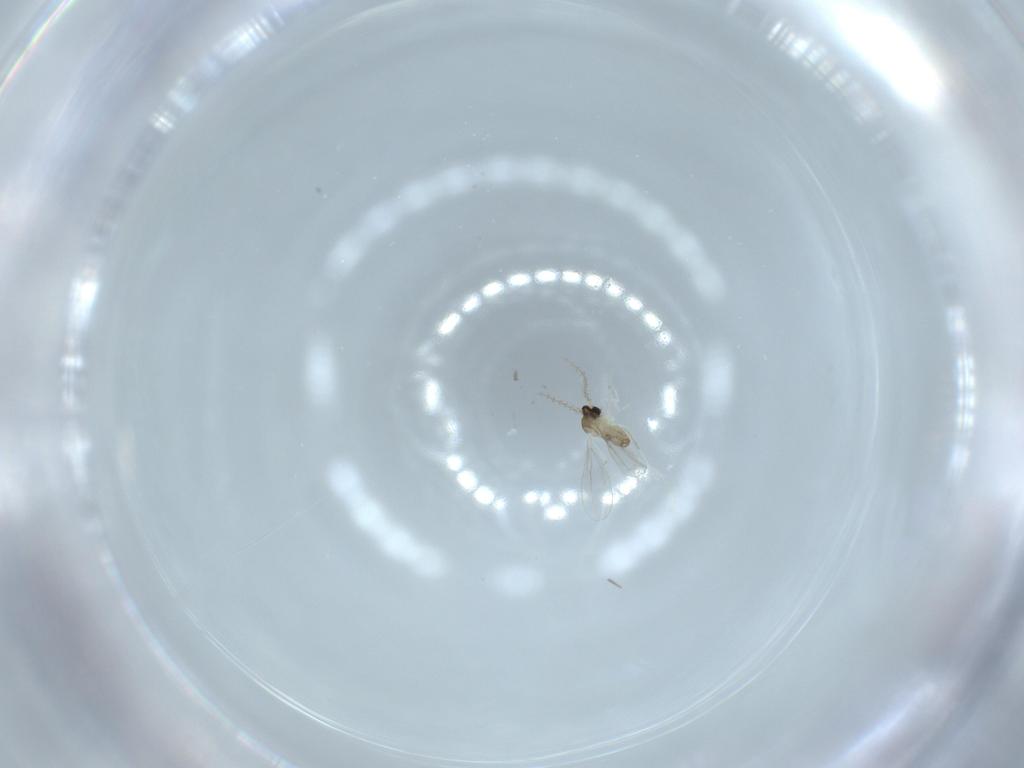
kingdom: Animalia
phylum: Arthropoda
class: Insecta
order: Diptera
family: Cecidomyiidae
